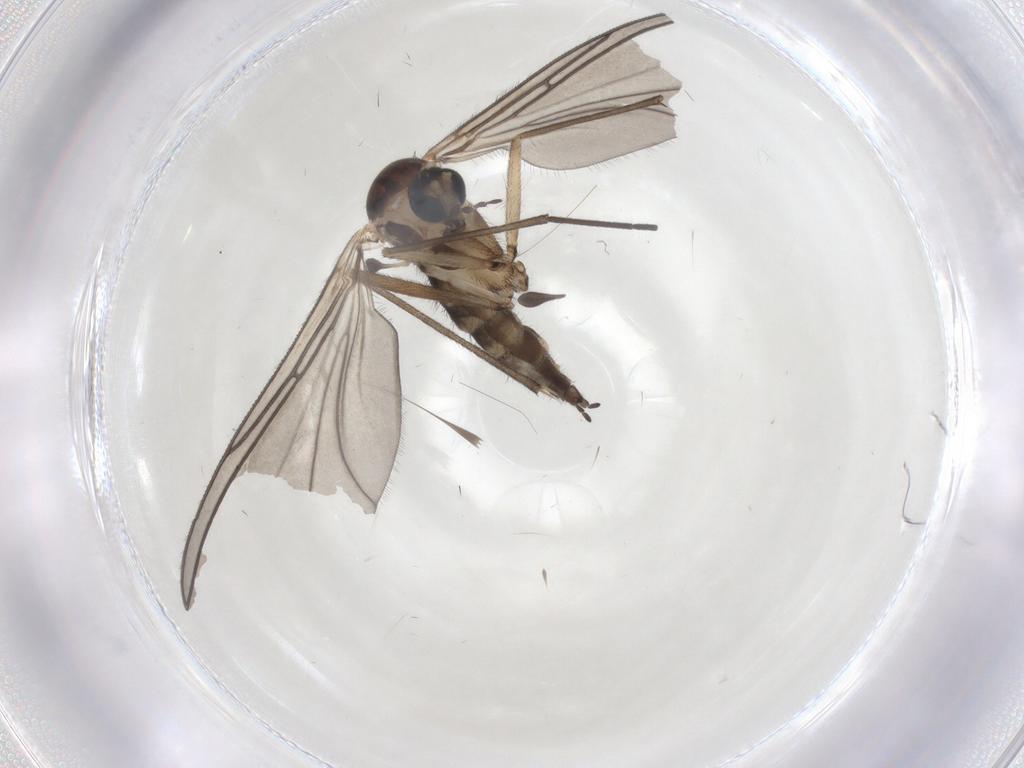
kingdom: Animalia
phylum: Arthropoda
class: Insecta
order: Diptera
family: Sciaridae
